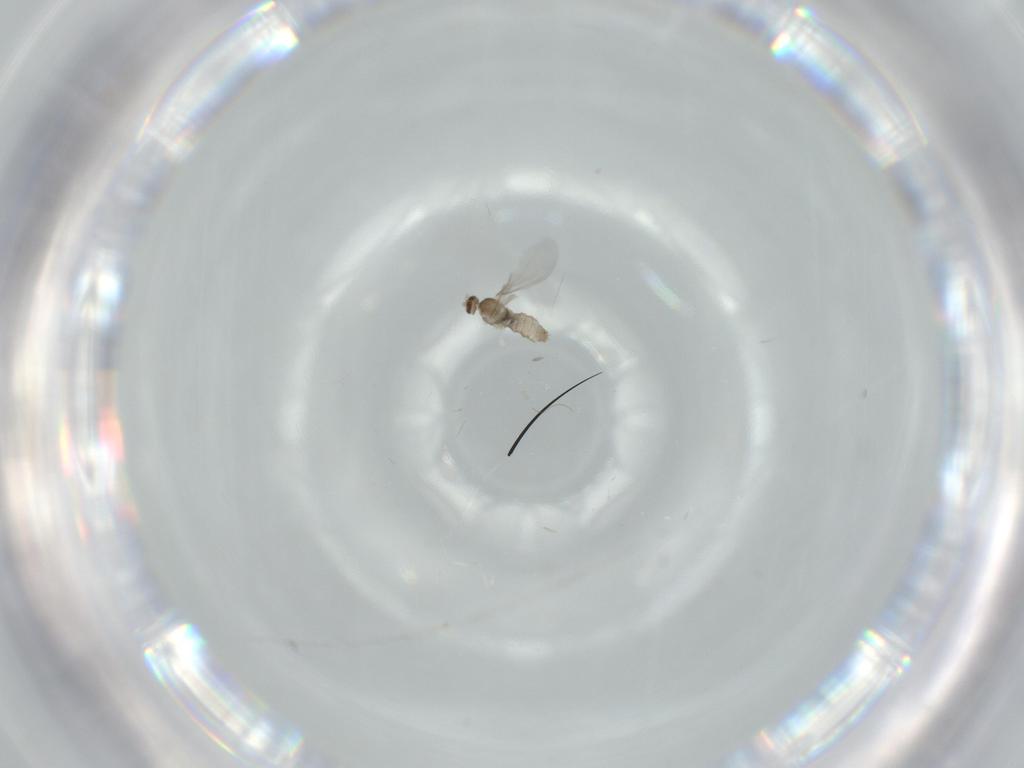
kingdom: Animalia
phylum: Arthropoda
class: Insecta
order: Diptera
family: Cecidomyiidae
